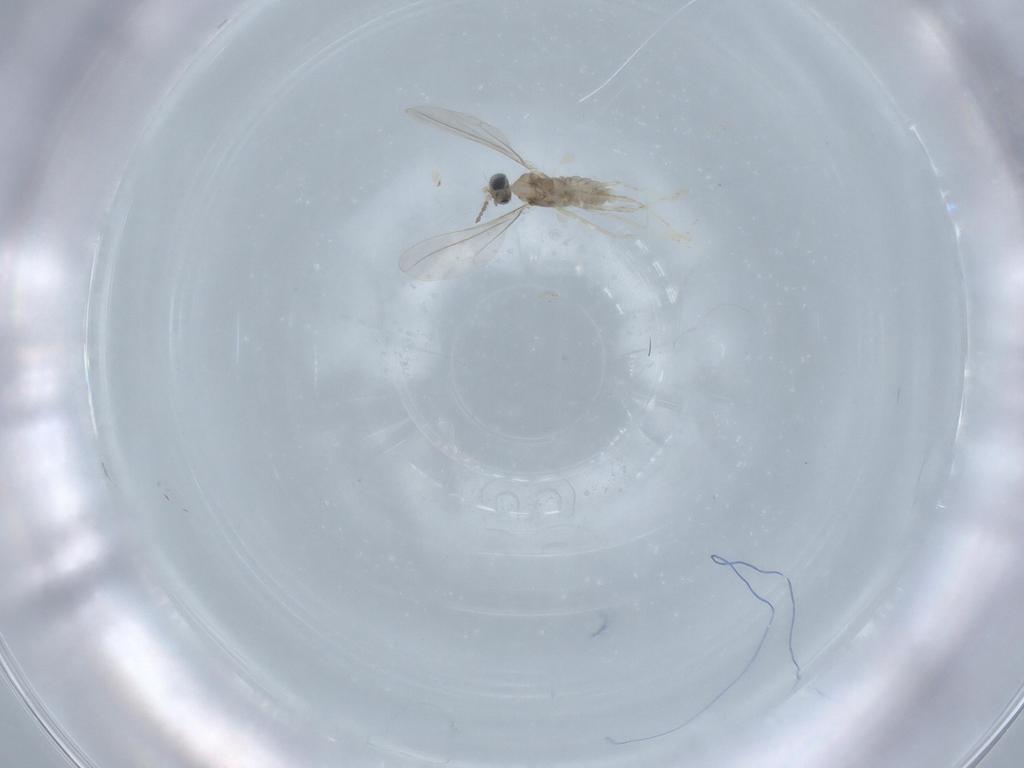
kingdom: Animalia
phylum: Arthropoda
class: Insecta
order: Diptera
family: Cecidomyiidae
